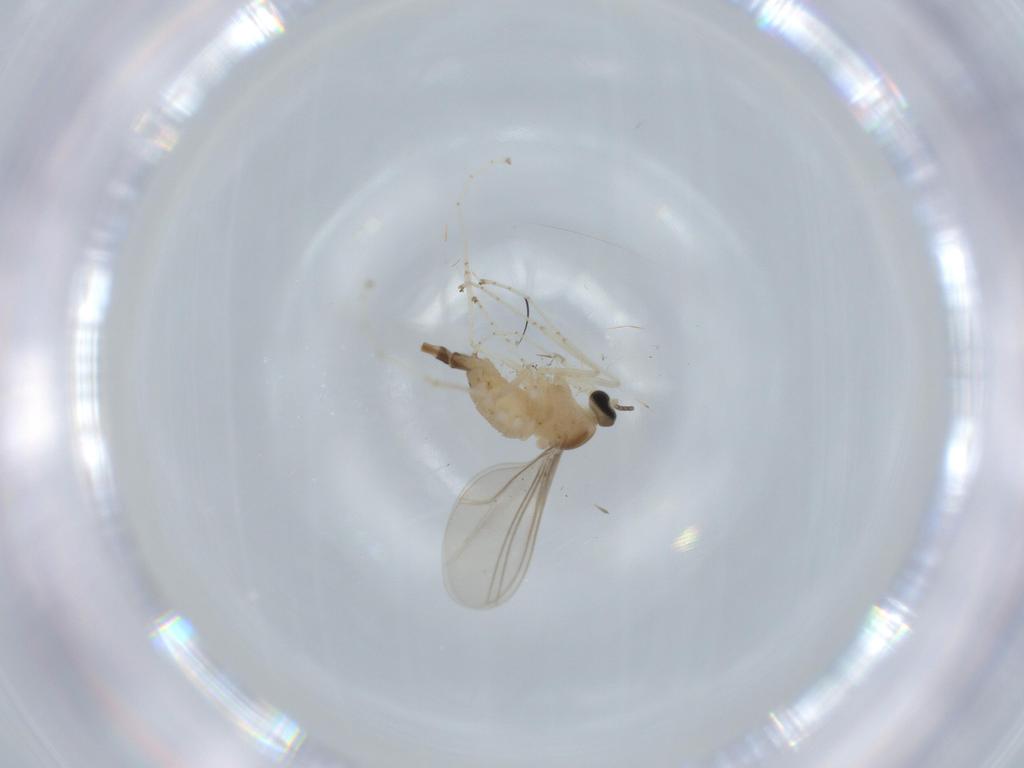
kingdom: Animalia
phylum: Arthropoda
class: Insecta
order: Diptera
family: Cecidomyiidae
